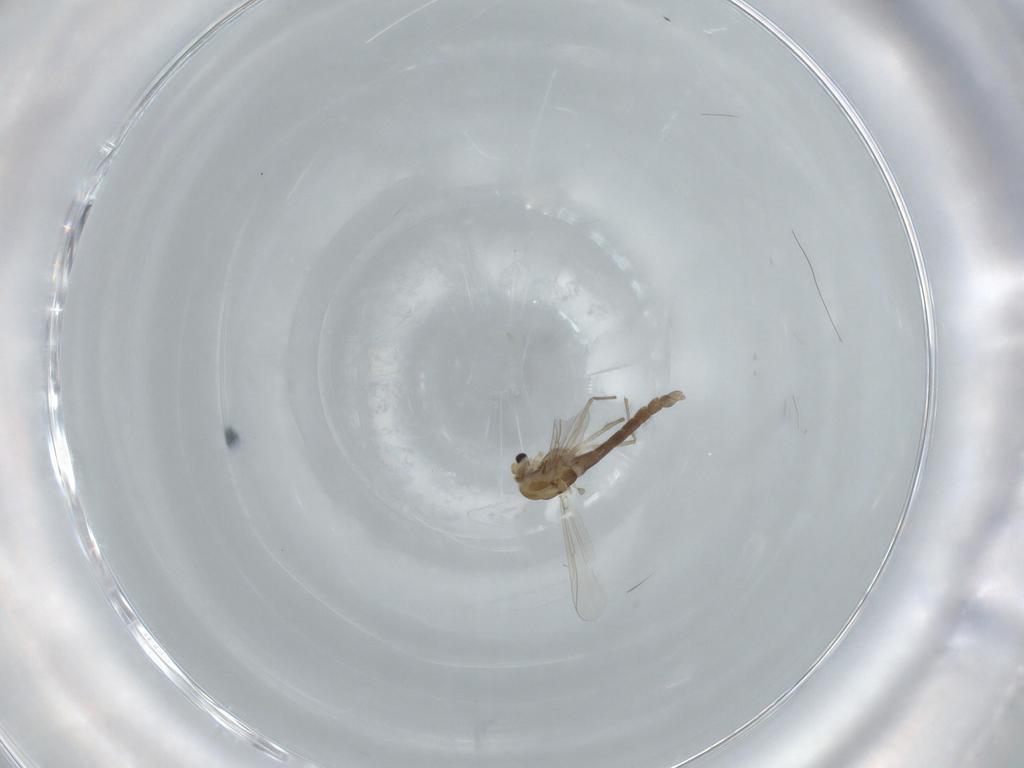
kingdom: Animalia
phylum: Arthropoda
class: Insecta
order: Diptera
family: Chironomidae
